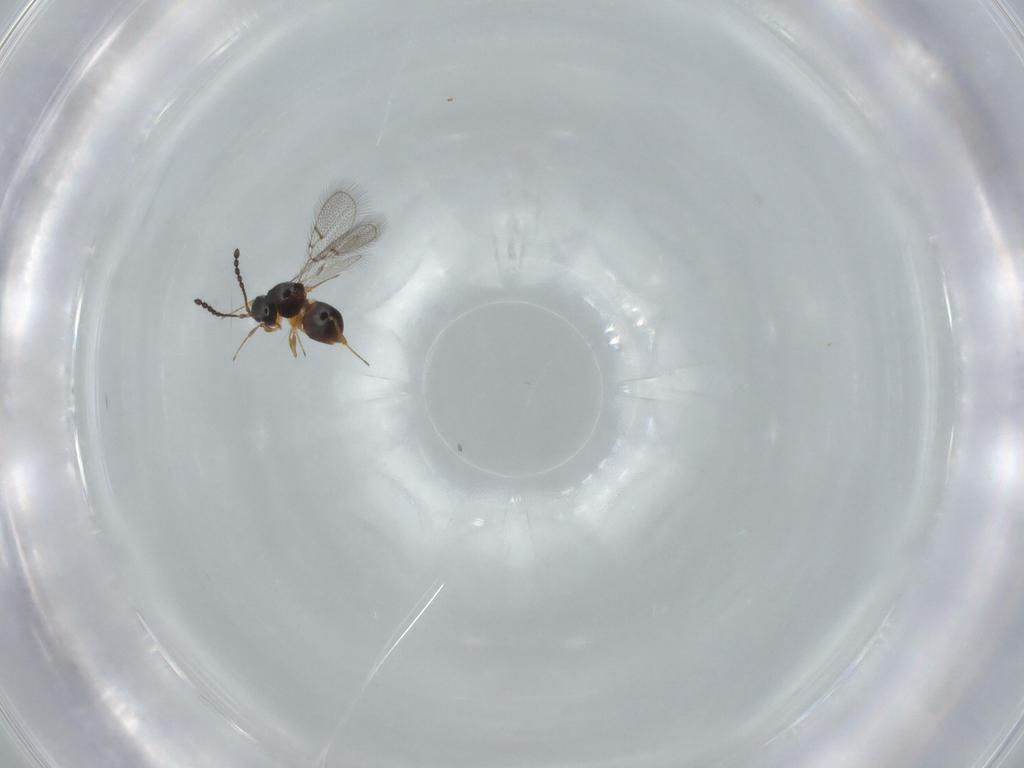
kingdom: Animalia
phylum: Arthropoda
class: Insecta
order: Hymenoptera
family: Figitidae
